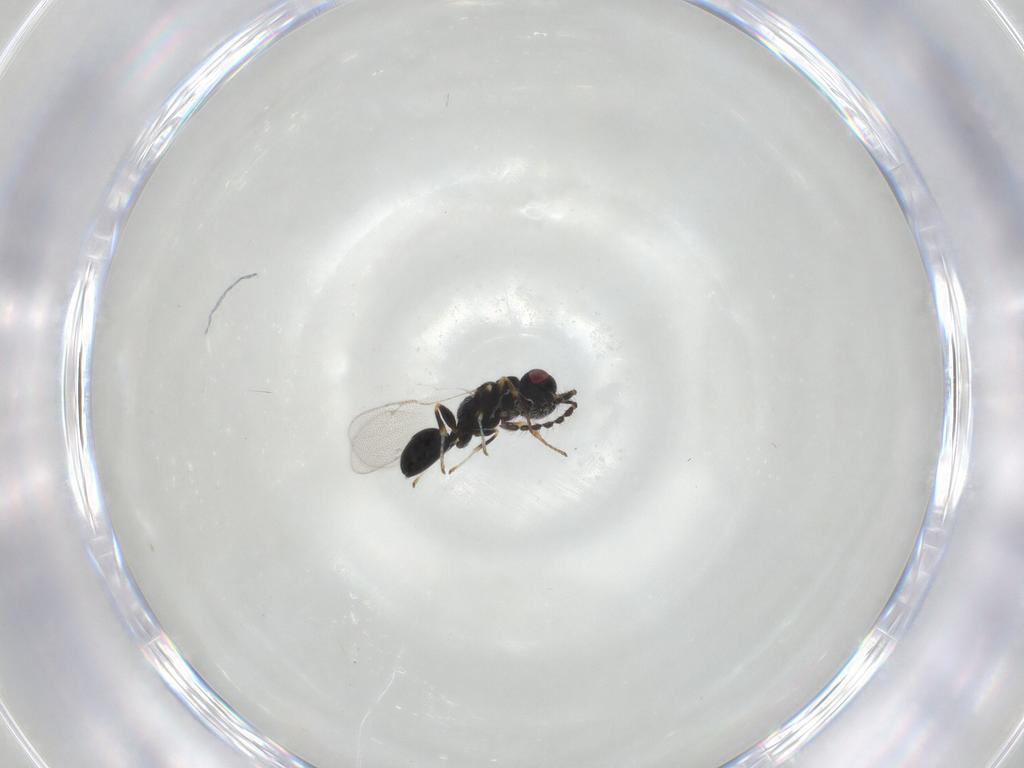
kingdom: Animalia
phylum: Arthropoda
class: Insecta
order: Hymenoptera
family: Eurytomidae
